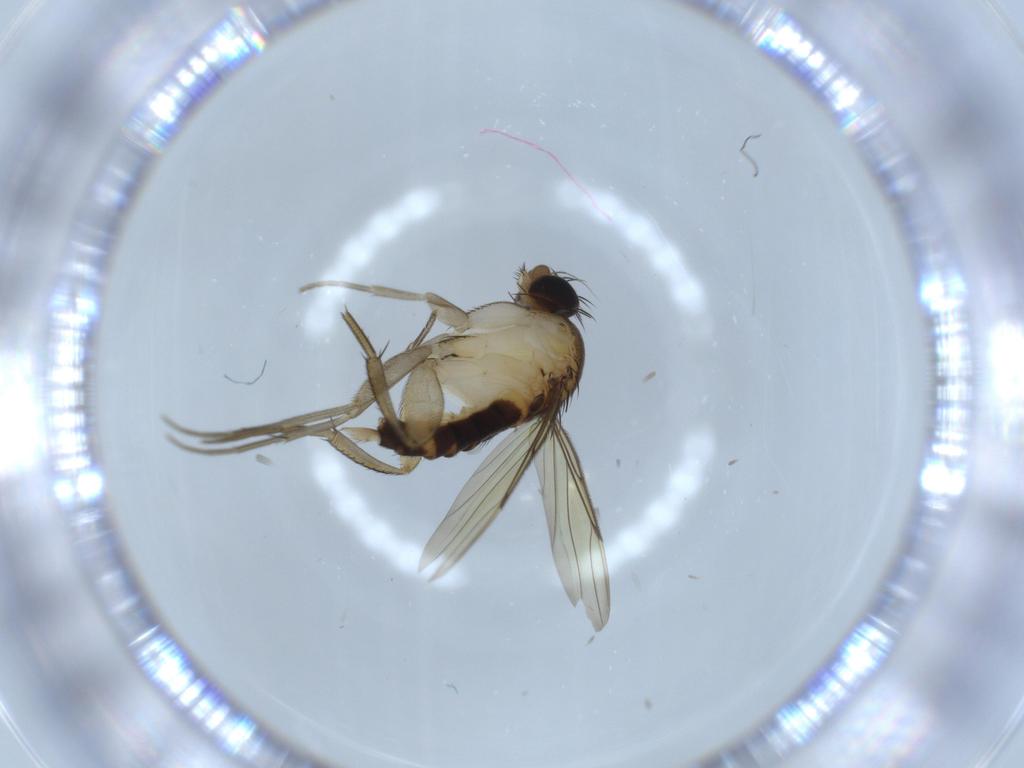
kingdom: Animalia
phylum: Arthropoda
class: Insecta
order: Diptera
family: Phoridae
